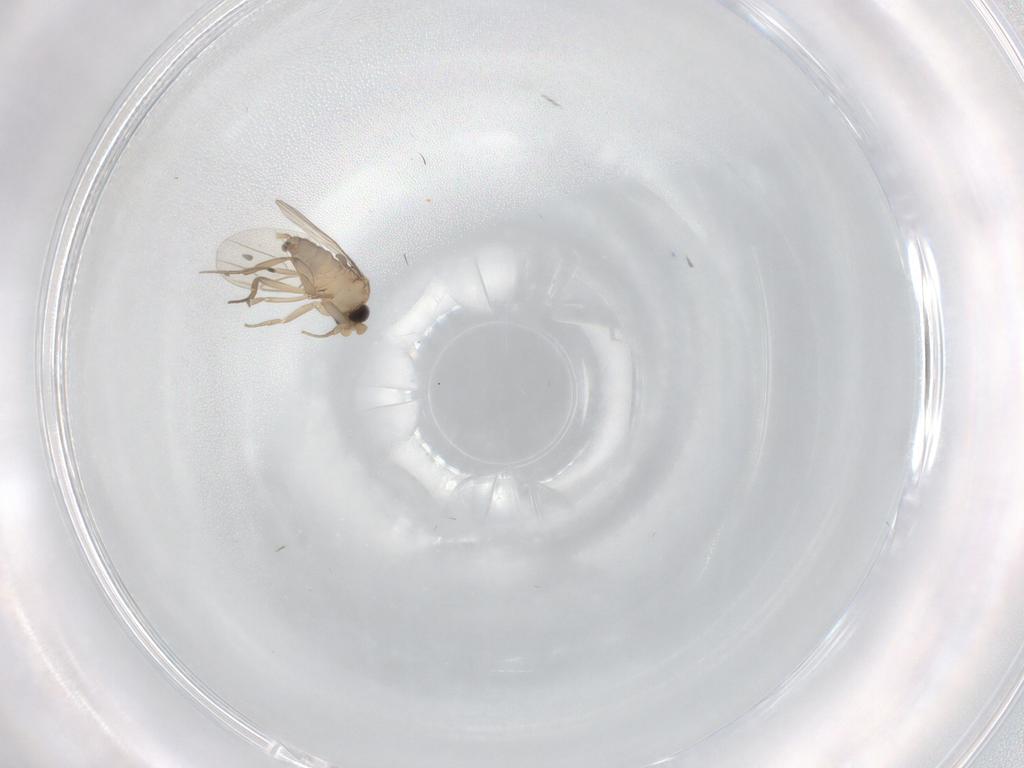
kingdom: Animalia
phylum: Arthropoda
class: Insecta
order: Diptera
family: Phoridae
